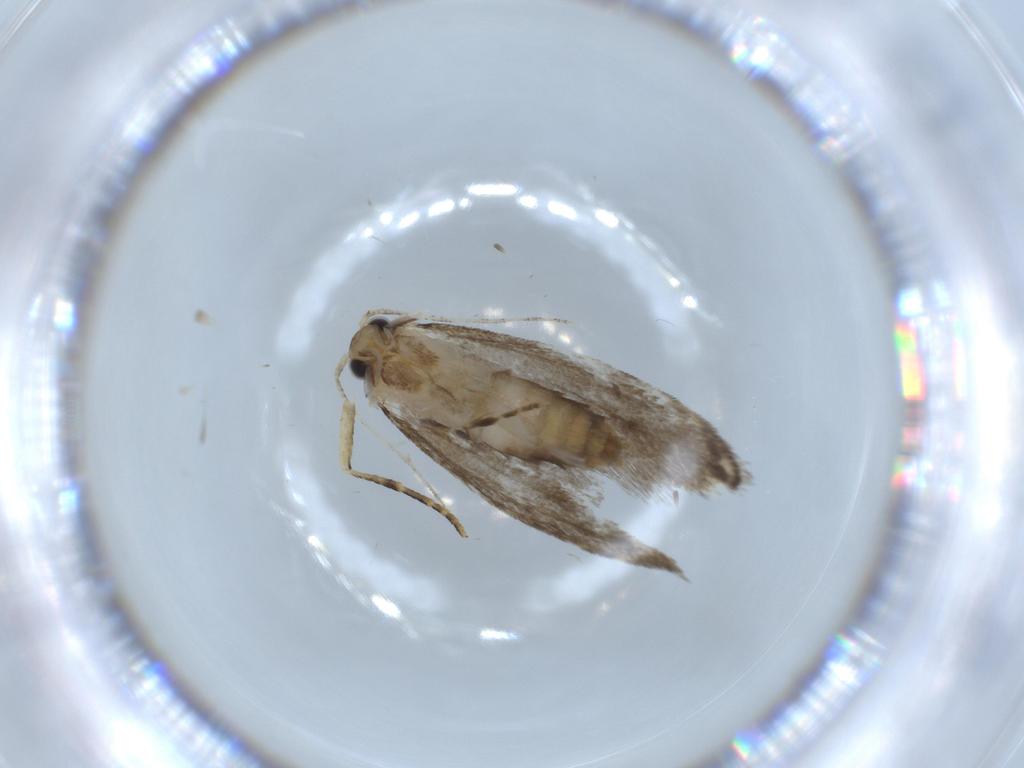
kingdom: Animalia
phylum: Arthropoda
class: Insecta
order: Lepidoptera
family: Tineidae
